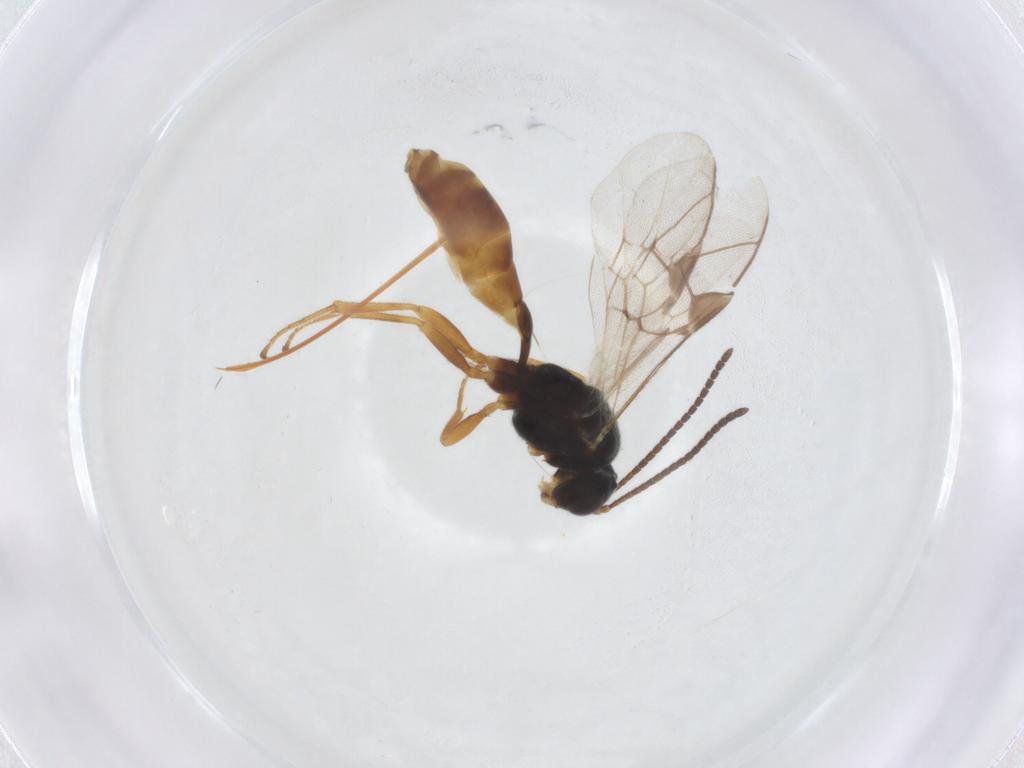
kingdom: Animalia
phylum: Arthropoda
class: Insecta
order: Hymenoptera
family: Ichneumonidae
